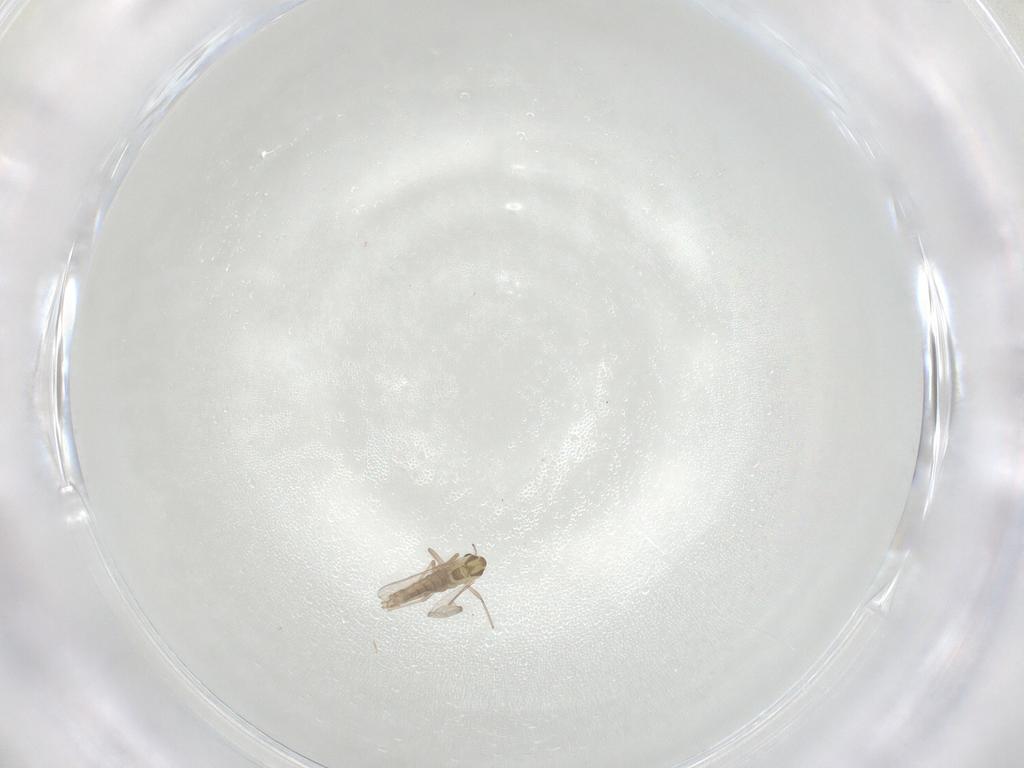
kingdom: Animalia
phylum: Arthropoda
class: Insecta
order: Diptera
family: Chironomidae
